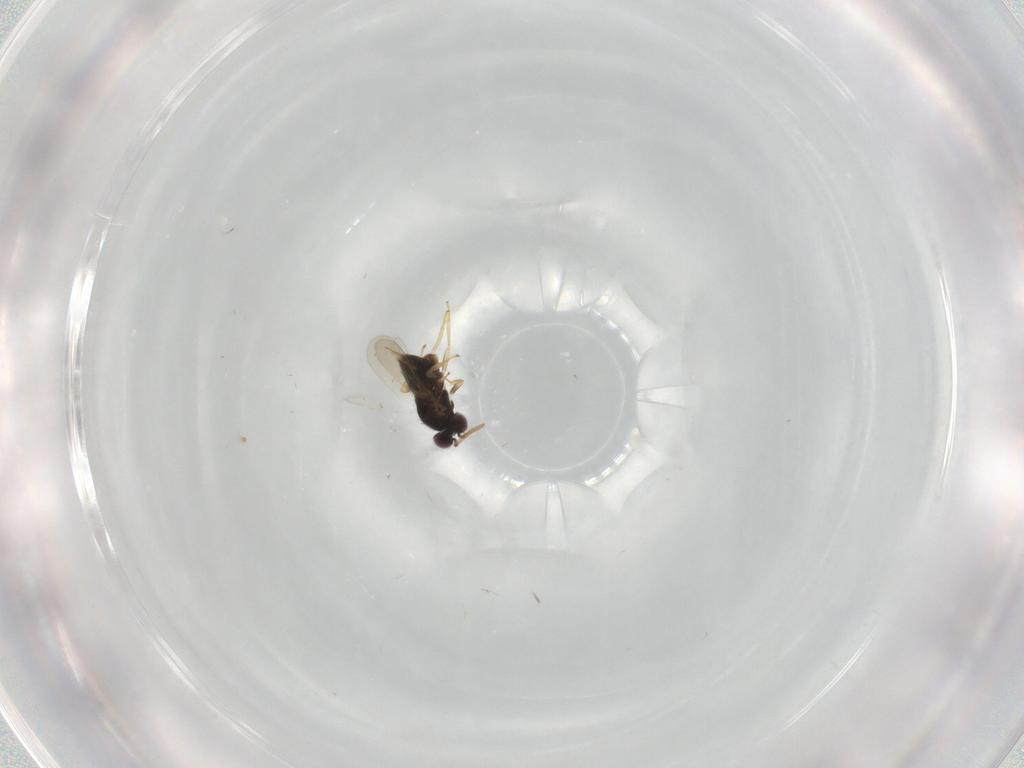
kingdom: Animalia
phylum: Arthropoda
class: Insecta
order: Hymenoptera
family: Aphelinidae
